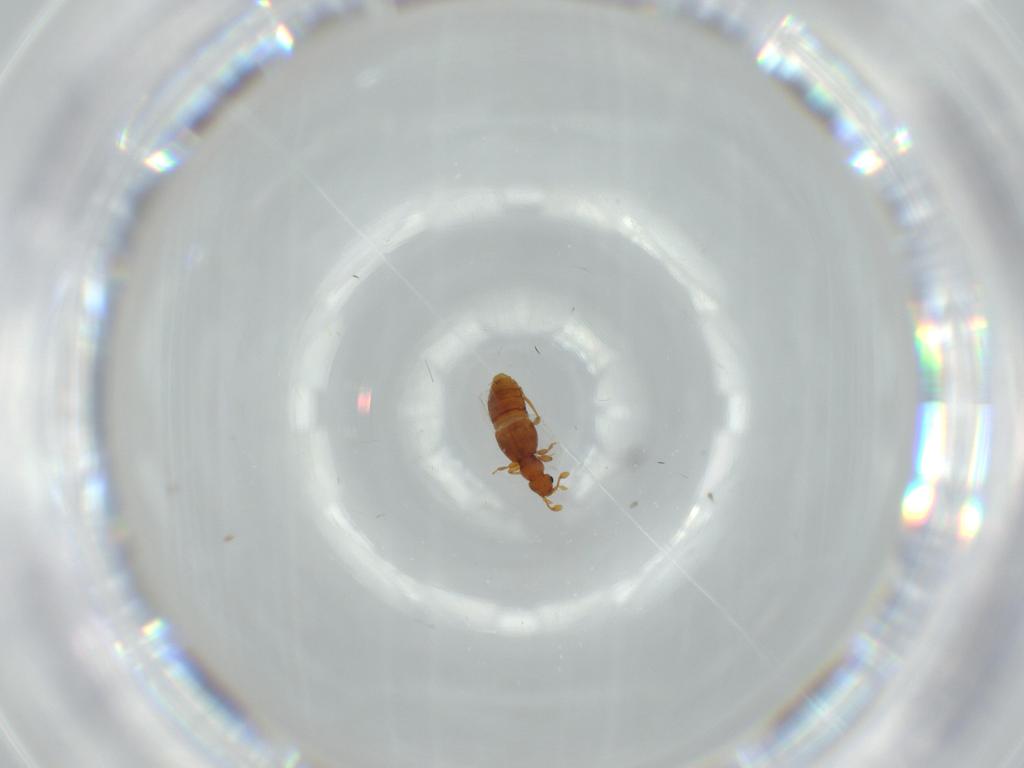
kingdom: Animalia
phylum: Arthropoda
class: Insecta
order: Coleoptera
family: Staphylinidae
